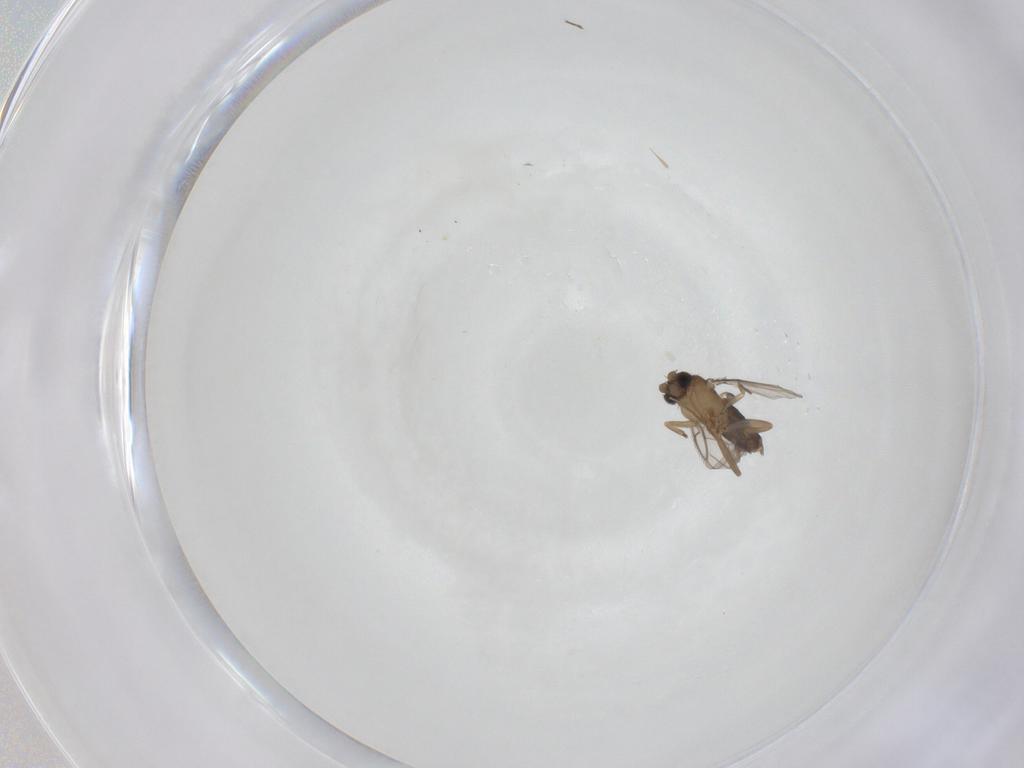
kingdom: Animalia
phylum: Arthropoda
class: Insecta
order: Diptera
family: Phoridae
